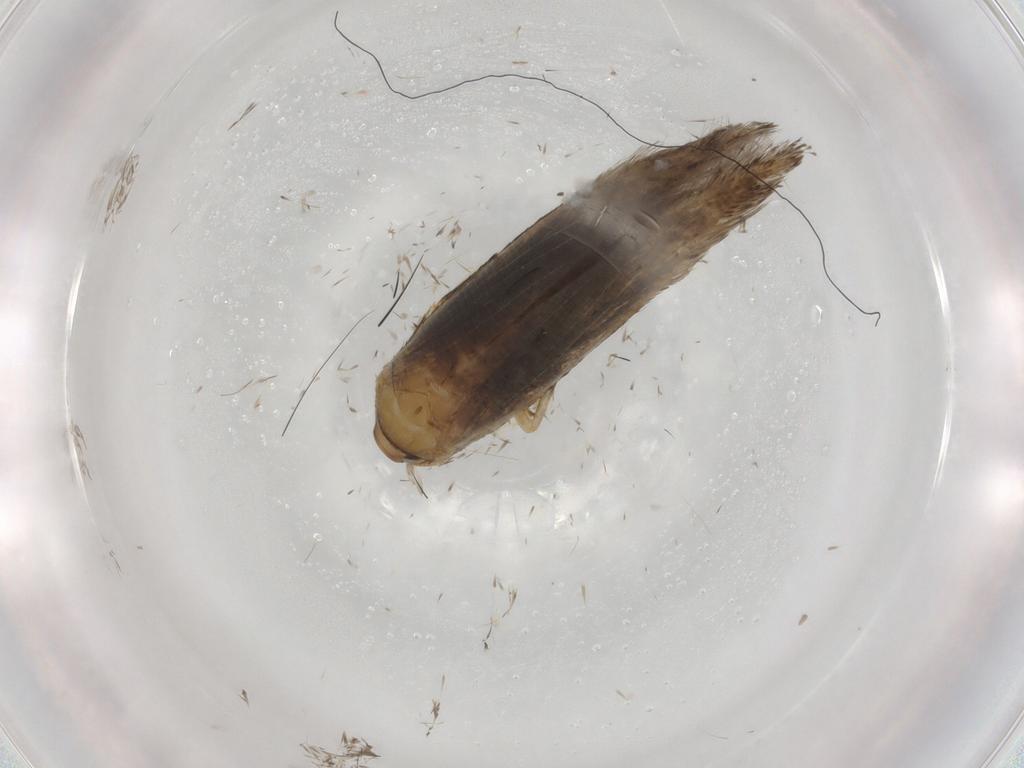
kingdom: Animalia
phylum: Arthropoda
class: Insecta
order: Lepidoptera
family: Cosmopterigidae
